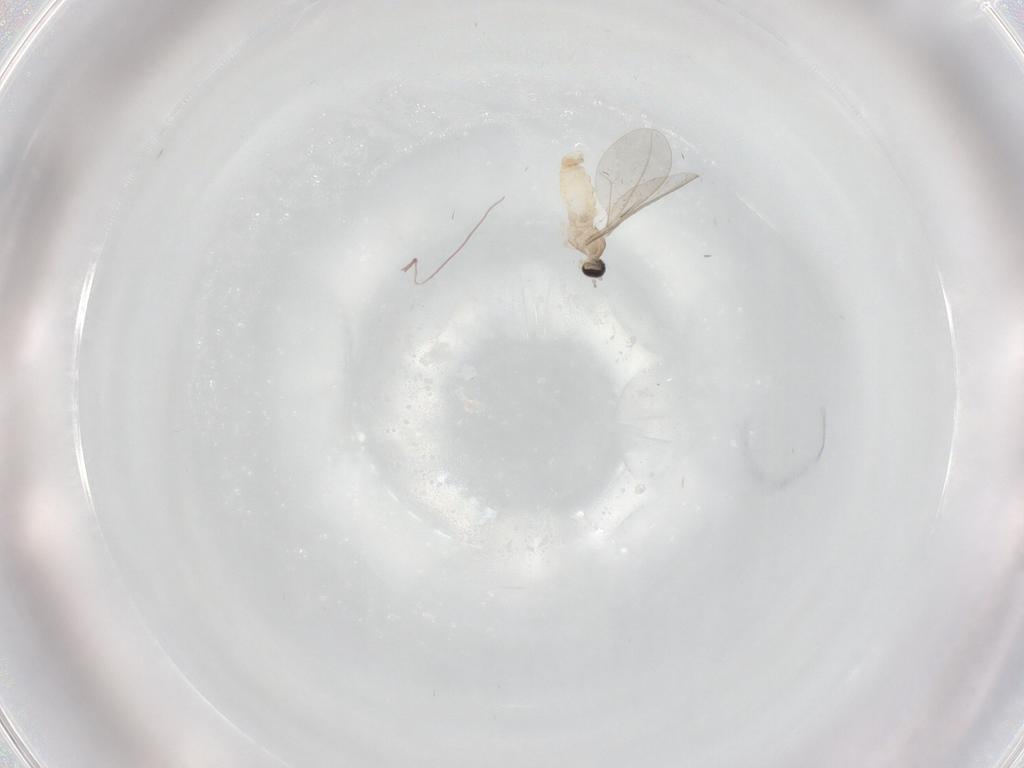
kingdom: Animalia
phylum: Arthropoda
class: Insecta
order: Diptera
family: Cecidomyiidae
